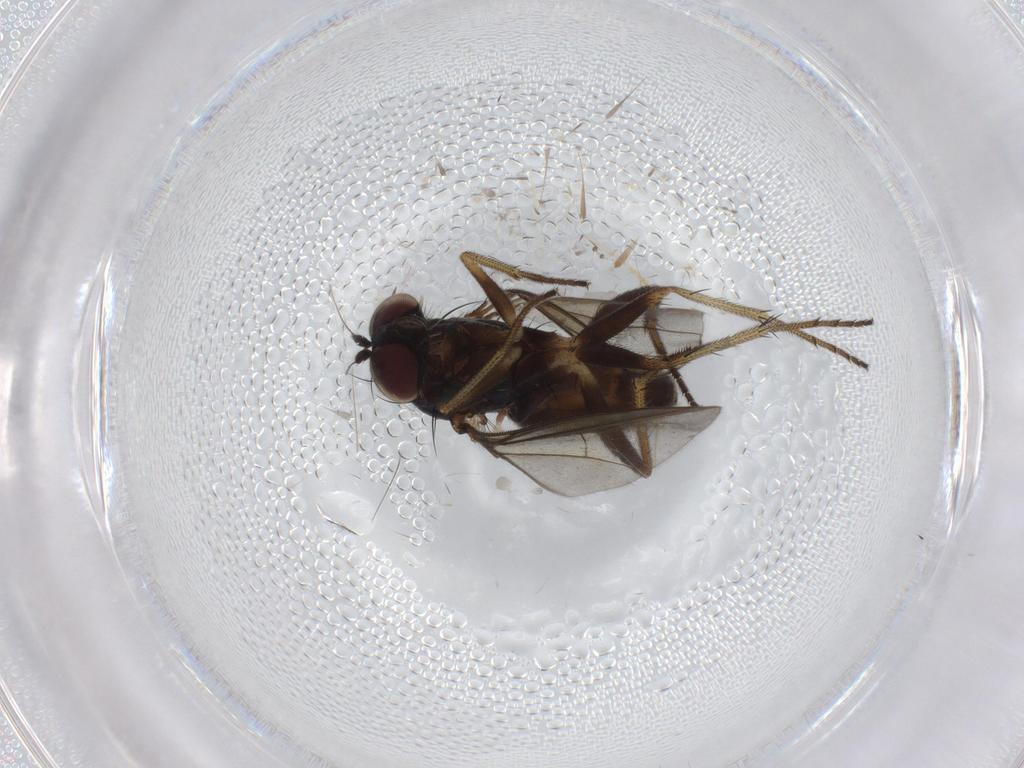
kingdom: Animalia
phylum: Arthropoda
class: Insecta
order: Diptera
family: Chironomidae
